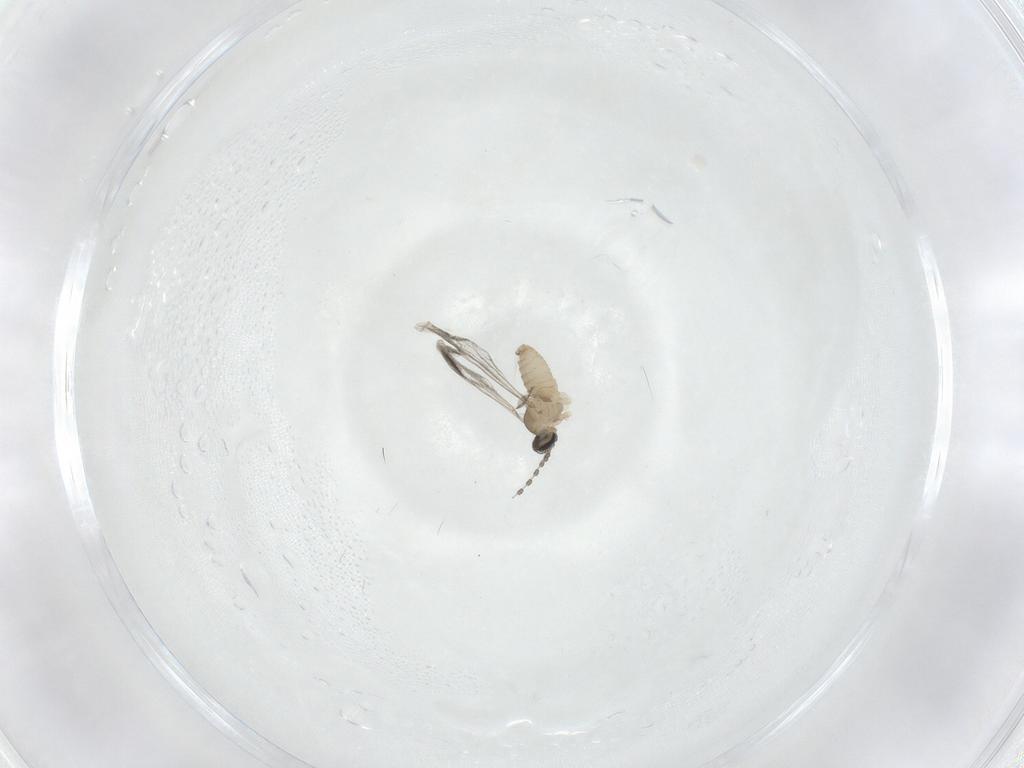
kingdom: Animalia
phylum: Arthropoda
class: Insecta
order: Diptera
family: Cecidomyiidae
